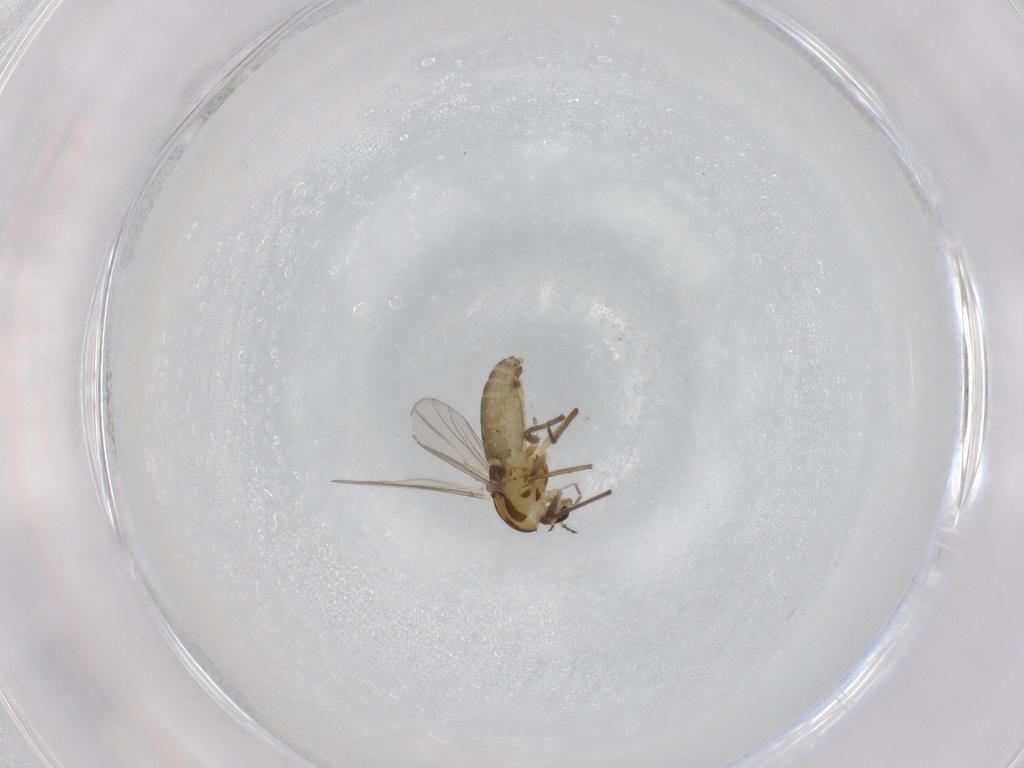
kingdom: Animalia
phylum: Arthropoda
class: Insecta
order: Diptera
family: Chironomidae
